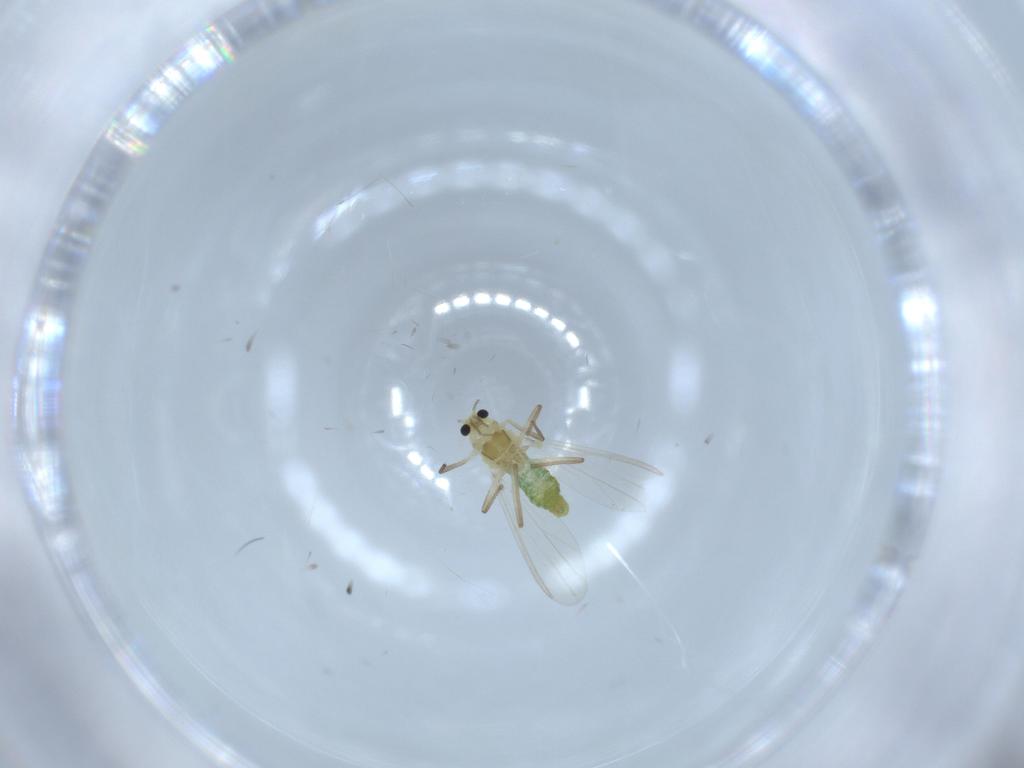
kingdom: Animalia
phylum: Arthropoda
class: Insecta
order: Diptera
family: Chironomidae
